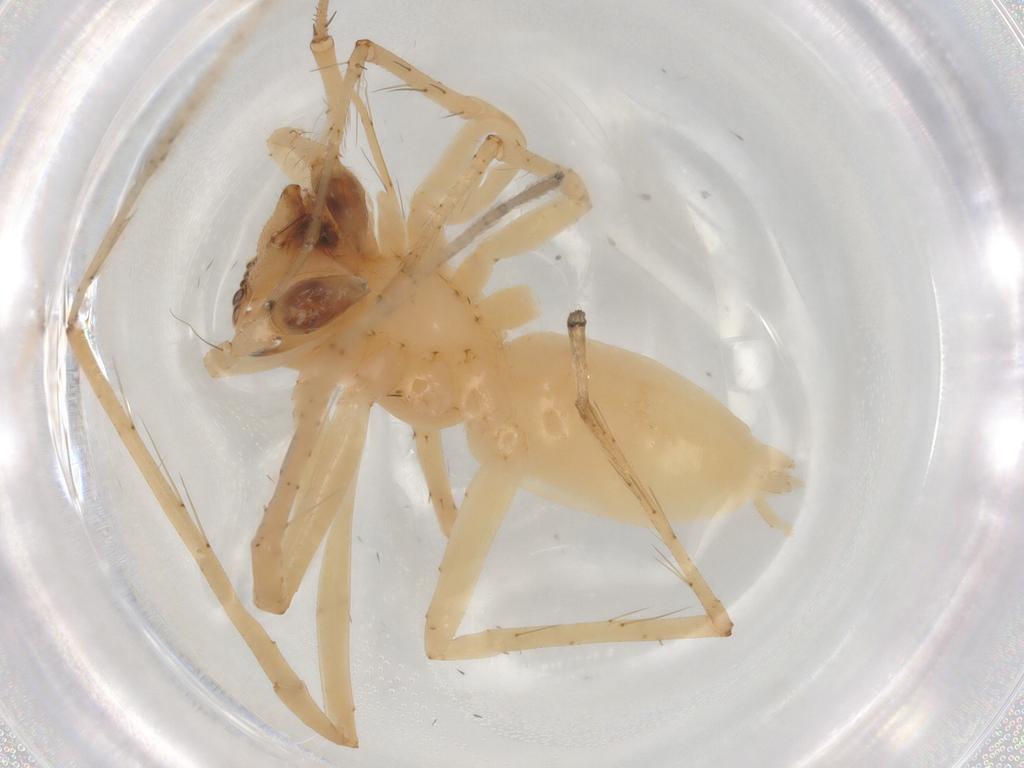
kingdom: Animalia
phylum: Arthropoda
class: Arachnida
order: Araneae
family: Anyphaenidae
